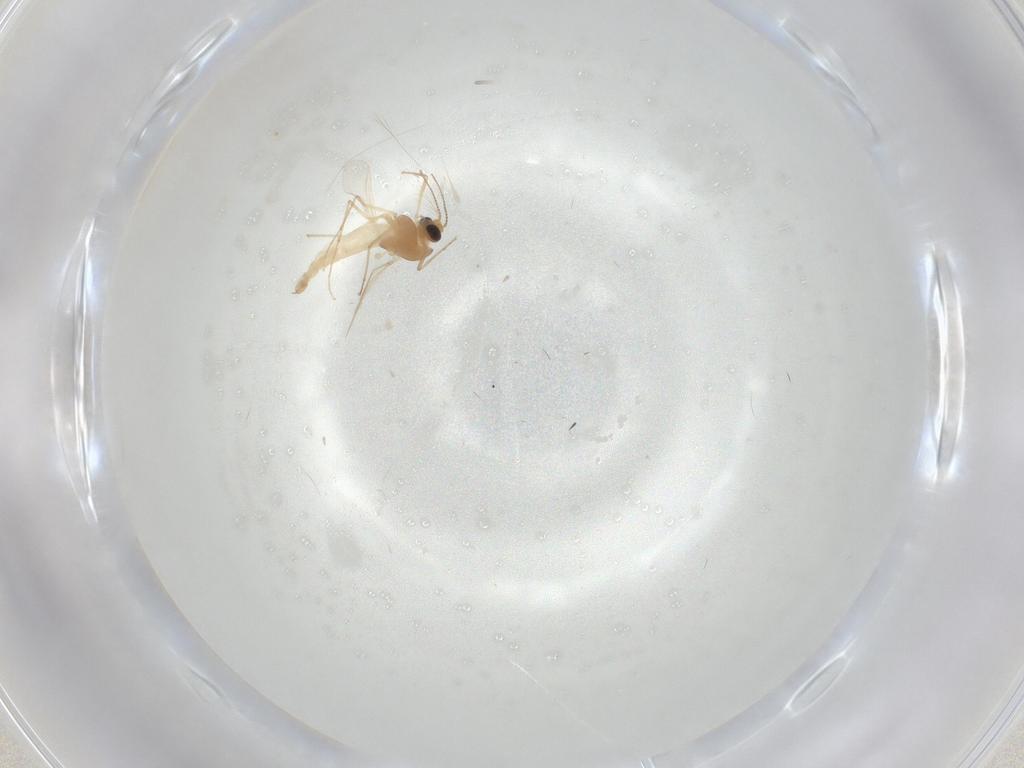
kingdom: Animalia
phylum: Arthropoda
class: Insecta
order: Diptera
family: Chironomidae
